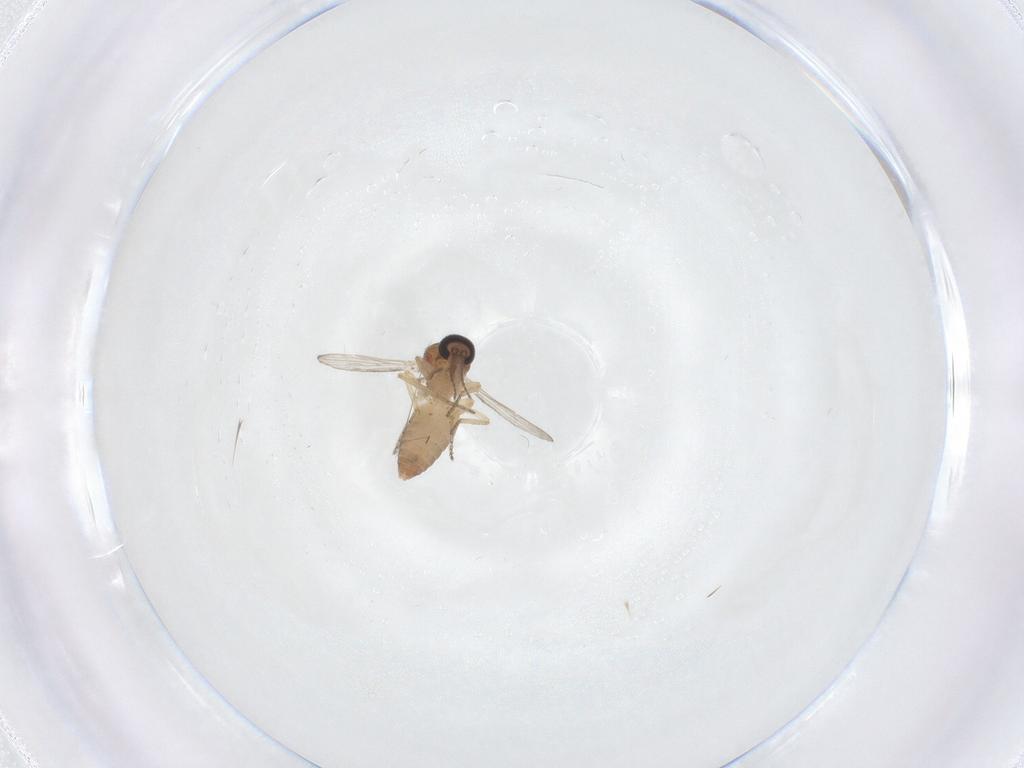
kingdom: Animalia
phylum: Arthropoda
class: Insecta
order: Diptera
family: Ceratopogonidae
